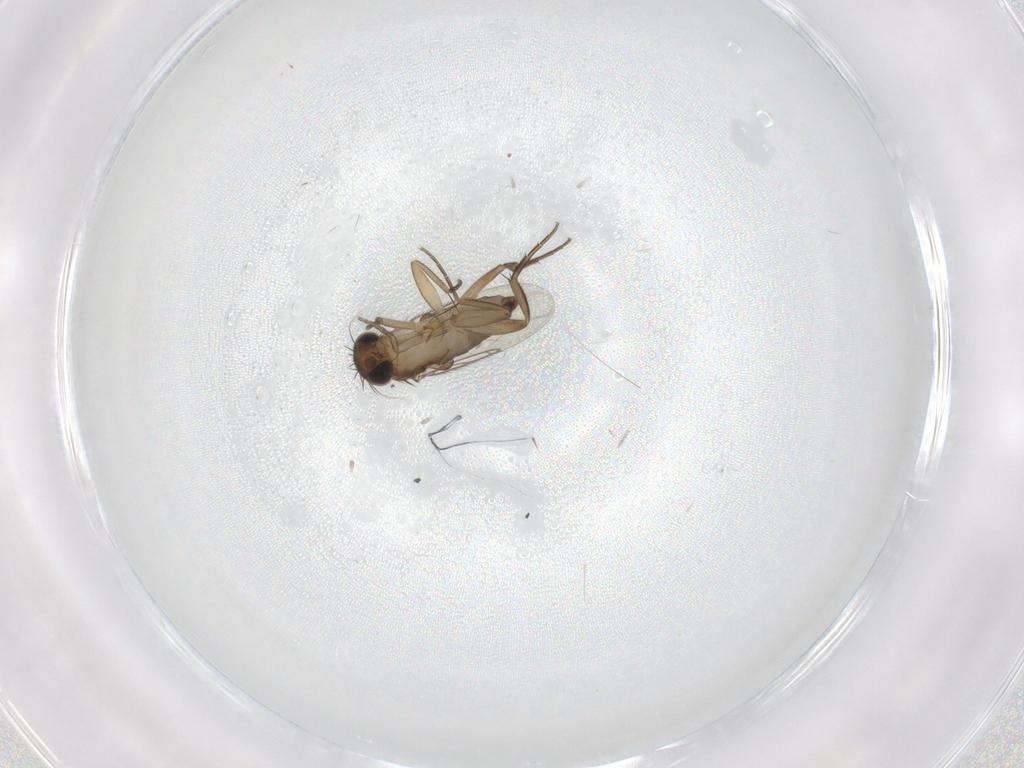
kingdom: Animalia
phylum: Arthropoda
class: Insecta
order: Diptera
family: Phoridae
